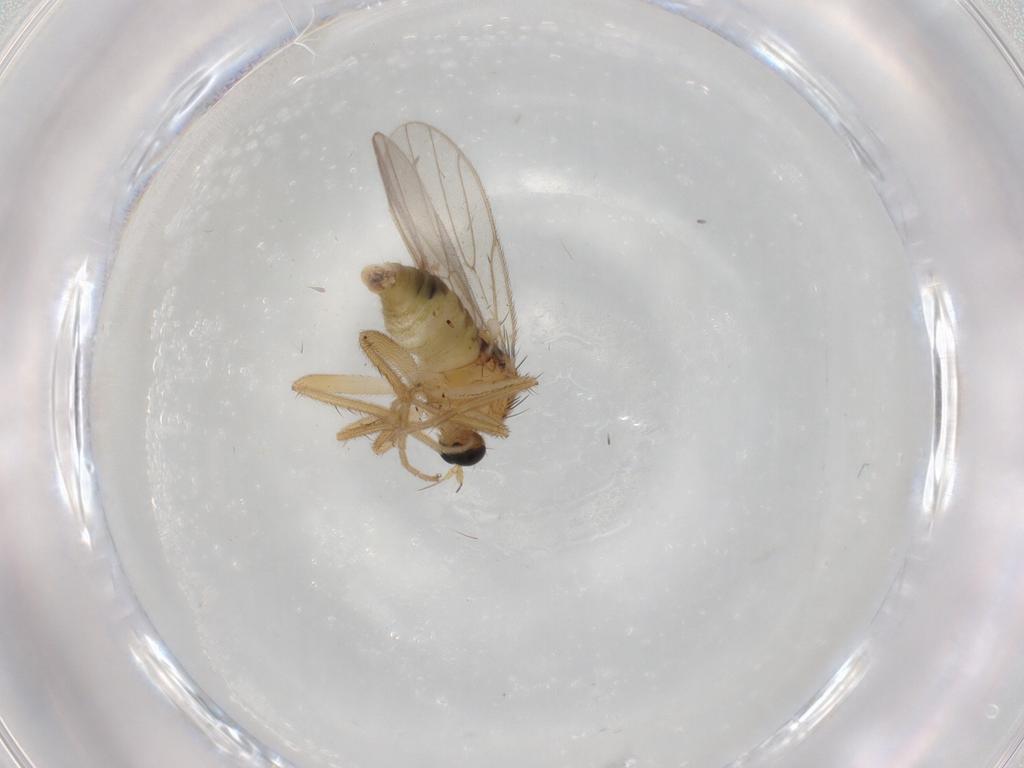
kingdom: Animalia
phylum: Arthropoda
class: Insecta
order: Diptera
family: Hybotidae
